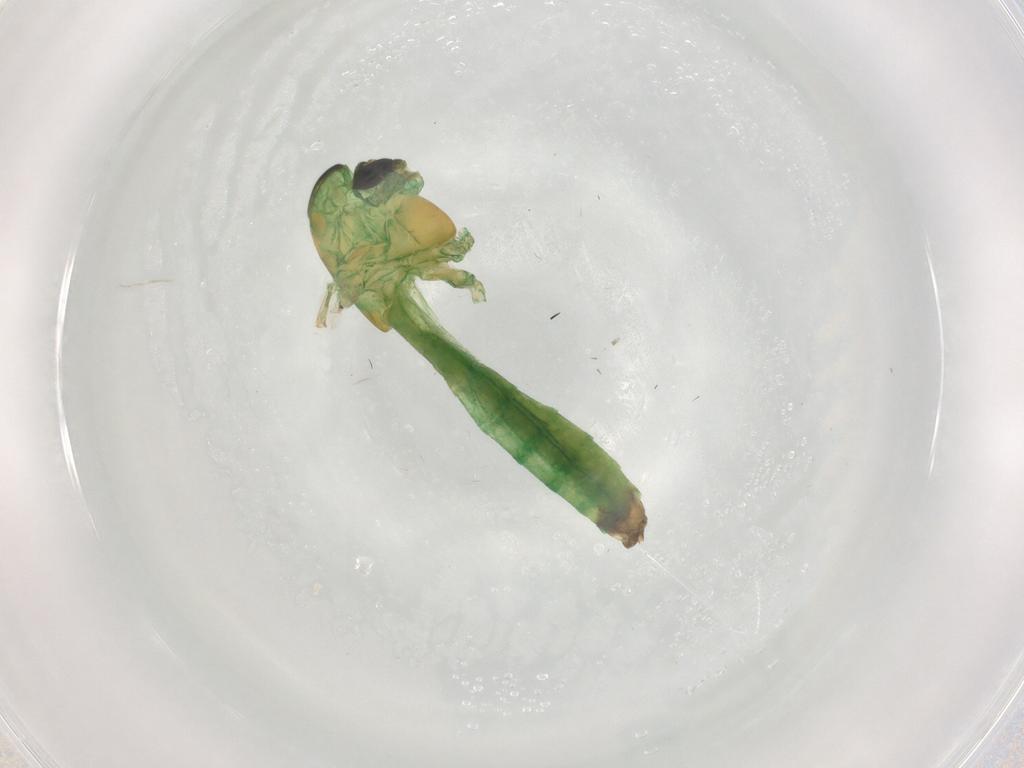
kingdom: Animalia
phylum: Arthropoda
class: Insecta
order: Diptera
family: Chironomidae
